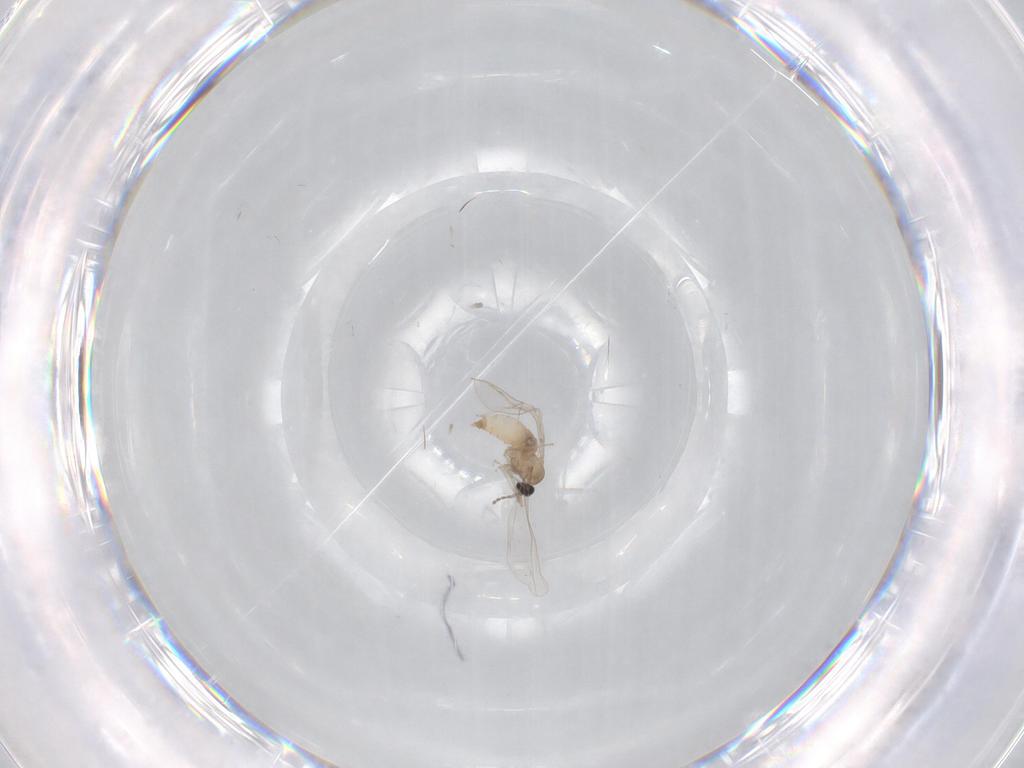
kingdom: Animalia
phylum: Arthropoda
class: Insecta
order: Diptera
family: Cecidomyiidae
